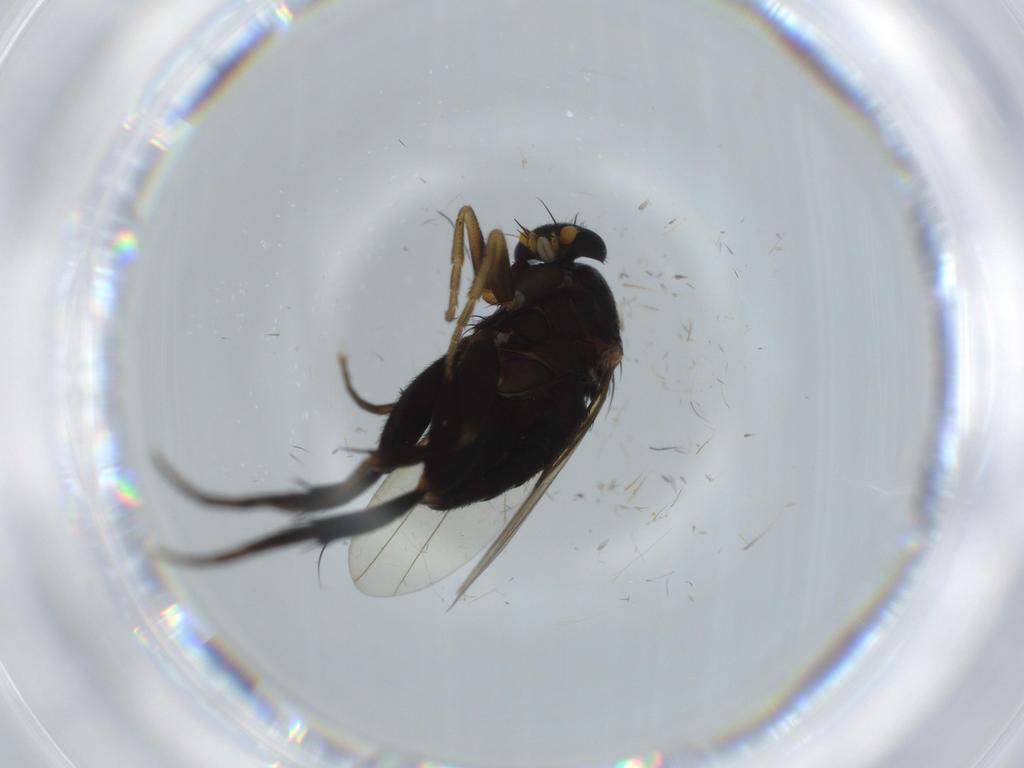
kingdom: Animalia
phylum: Arthropoda
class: Insecta
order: Diptera
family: Phoridae
